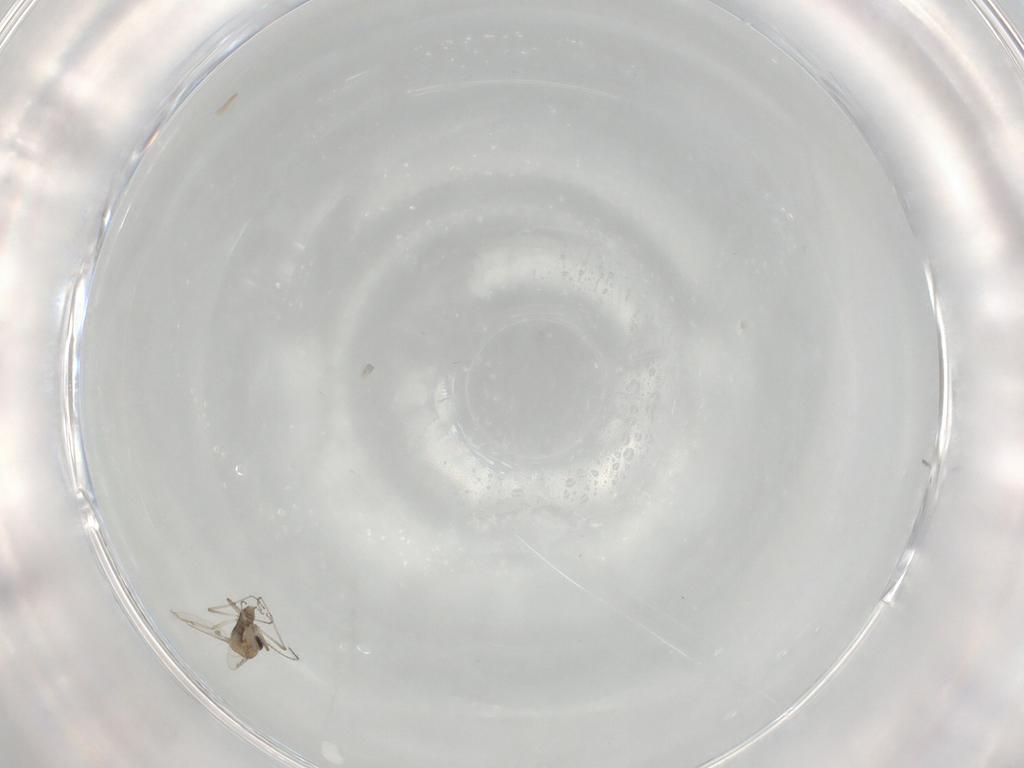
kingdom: Animalia
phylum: Arthropoda
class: Insecta
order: Diptera
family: Ceratopogonidae
